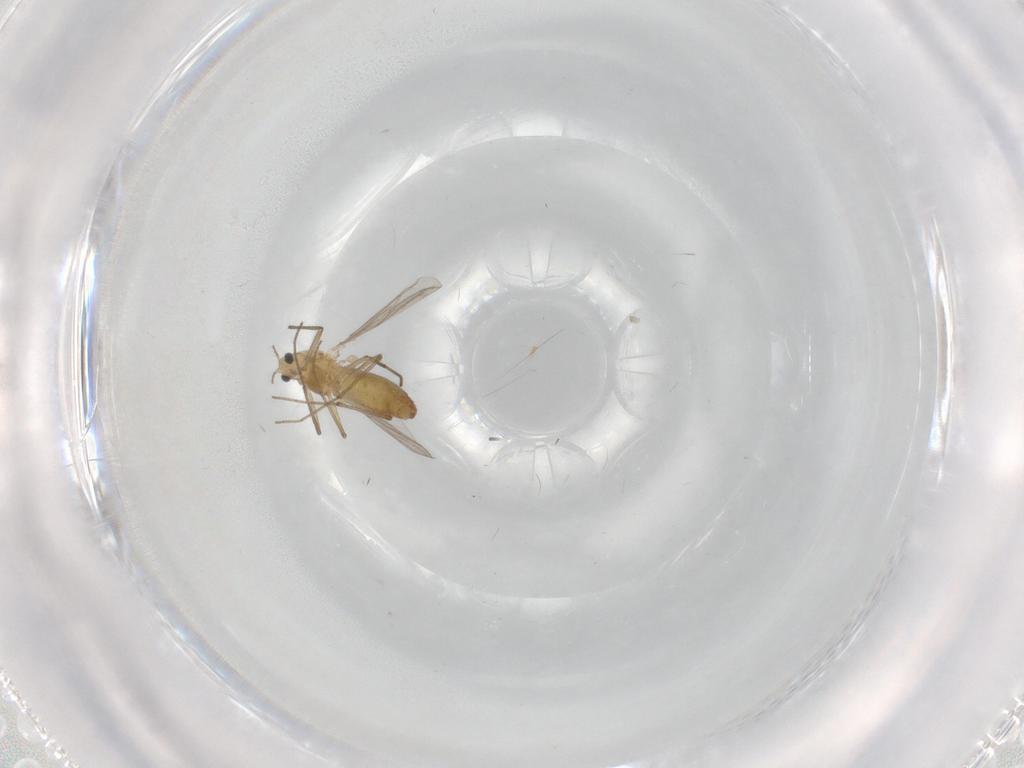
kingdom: Animalia
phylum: Arthropoda
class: Insecta
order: Diptera
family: Chironomidae
